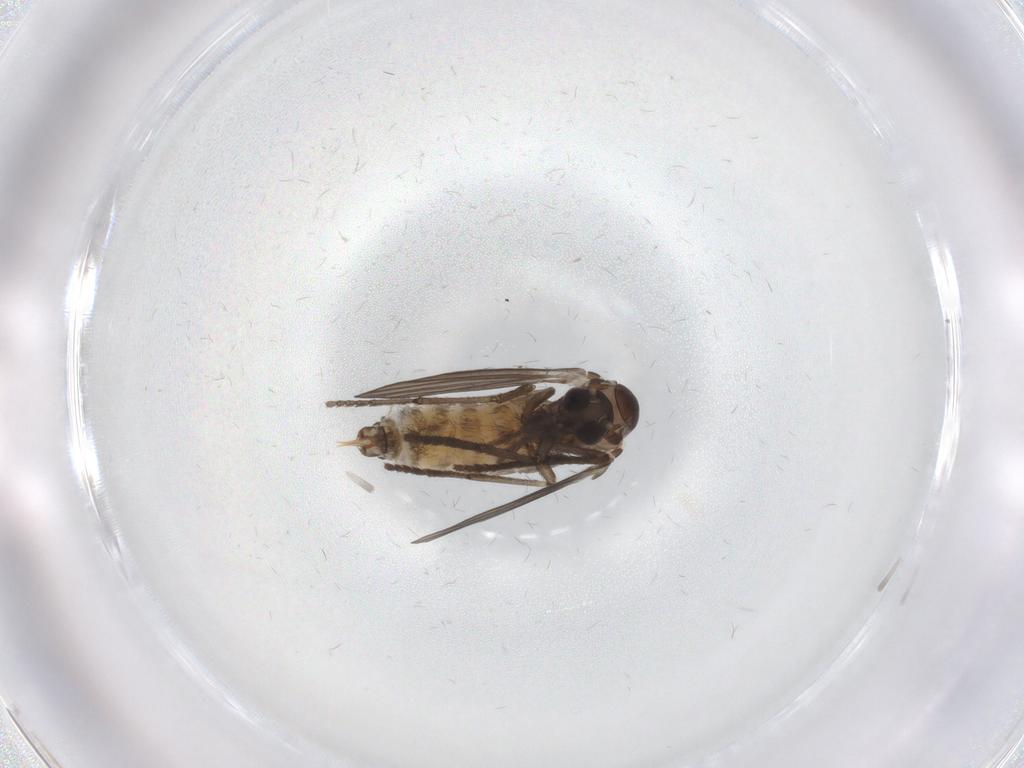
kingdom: Animalia
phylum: Arthropoda
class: Insecta
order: Diptera
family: Psychodidae
